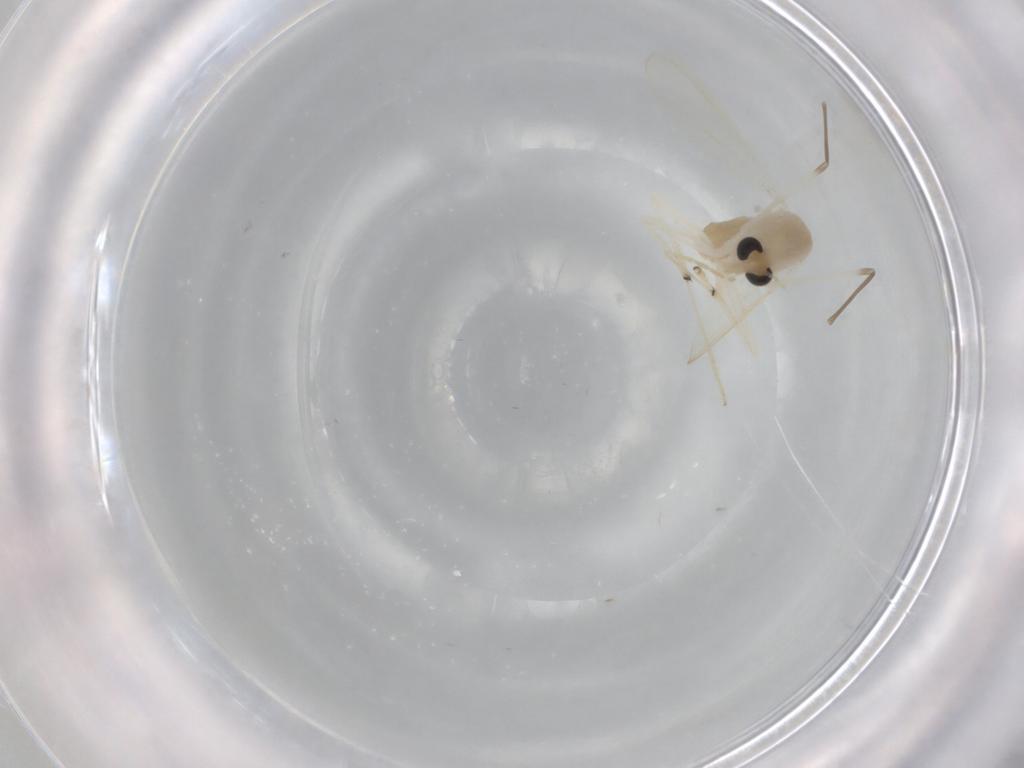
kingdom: Animalia
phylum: Arthropoda
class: Insecta
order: Diptera
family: Chironomidae
